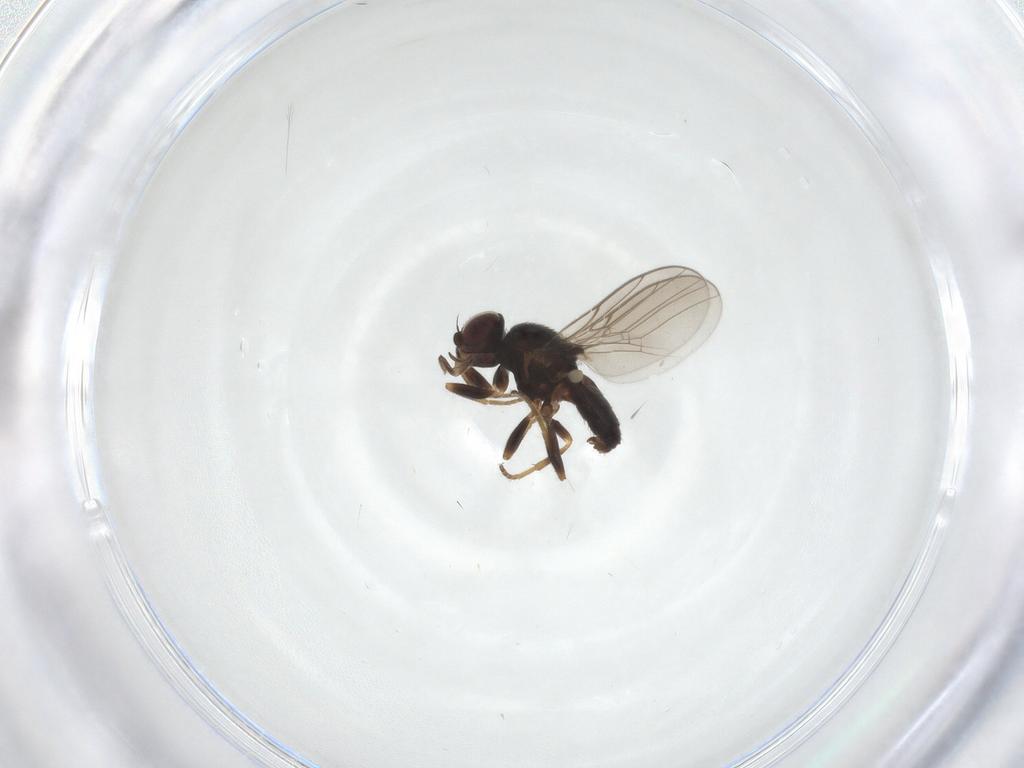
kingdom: Animalia
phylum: Arthropoda
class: Insecta
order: Diptera
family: Chloropidae
